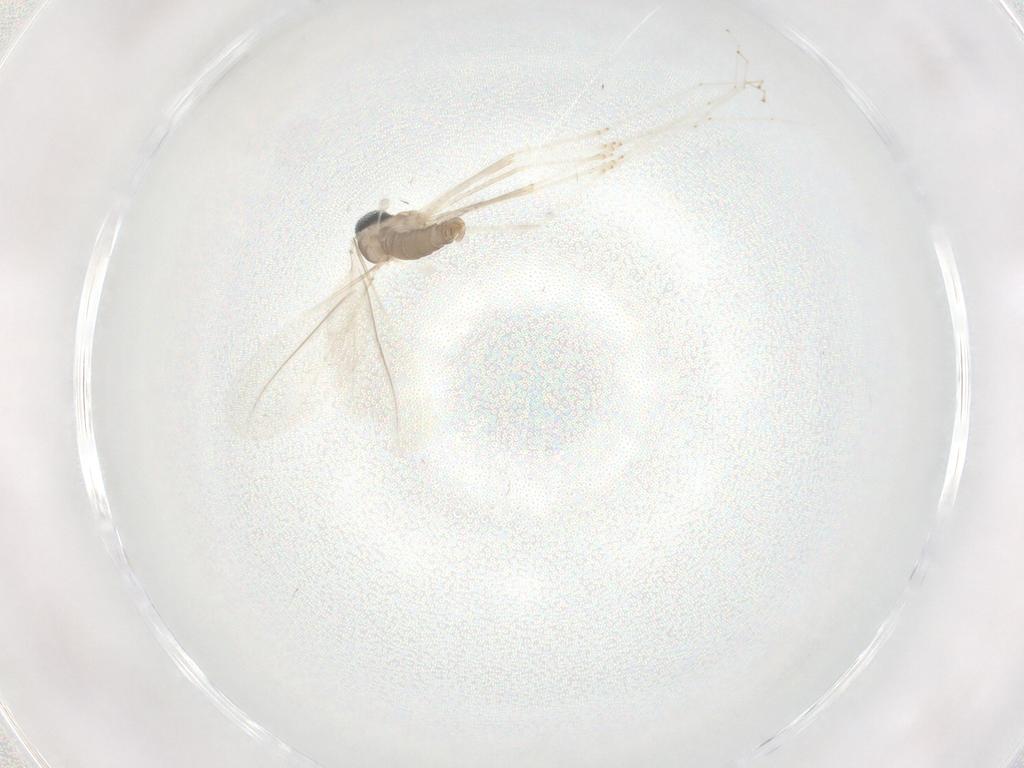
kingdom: Animalia
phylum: Arthropoda
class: Insecta
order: Diptera
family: Cecidomyiidae
